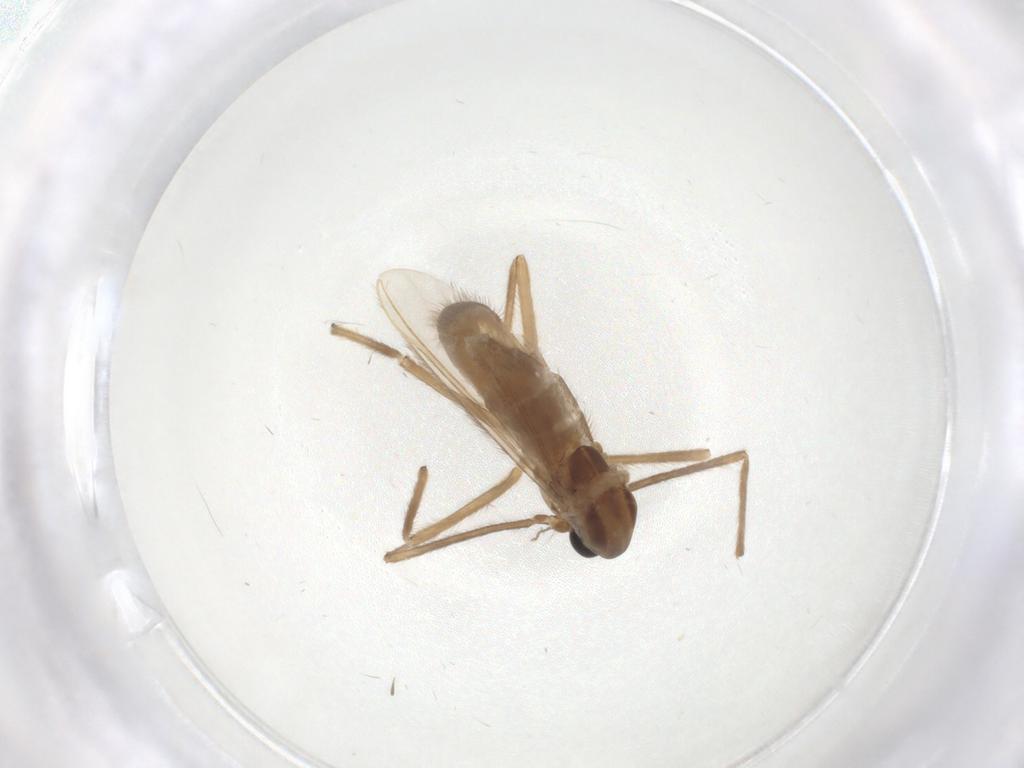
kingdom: Animalia
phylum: Arthropoda
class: Insecta
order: Diptera
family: Chironomidae
